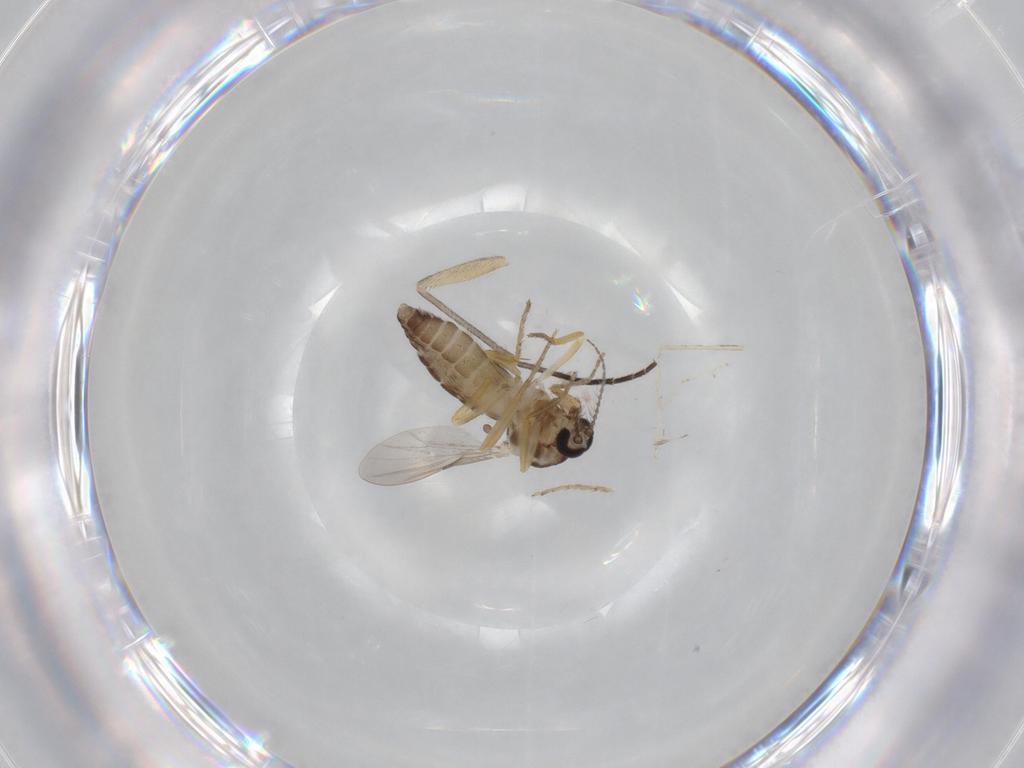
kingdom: Animalia
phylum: Arthropoda
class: Insecta
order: Diptera
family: Ceratopogonidae
